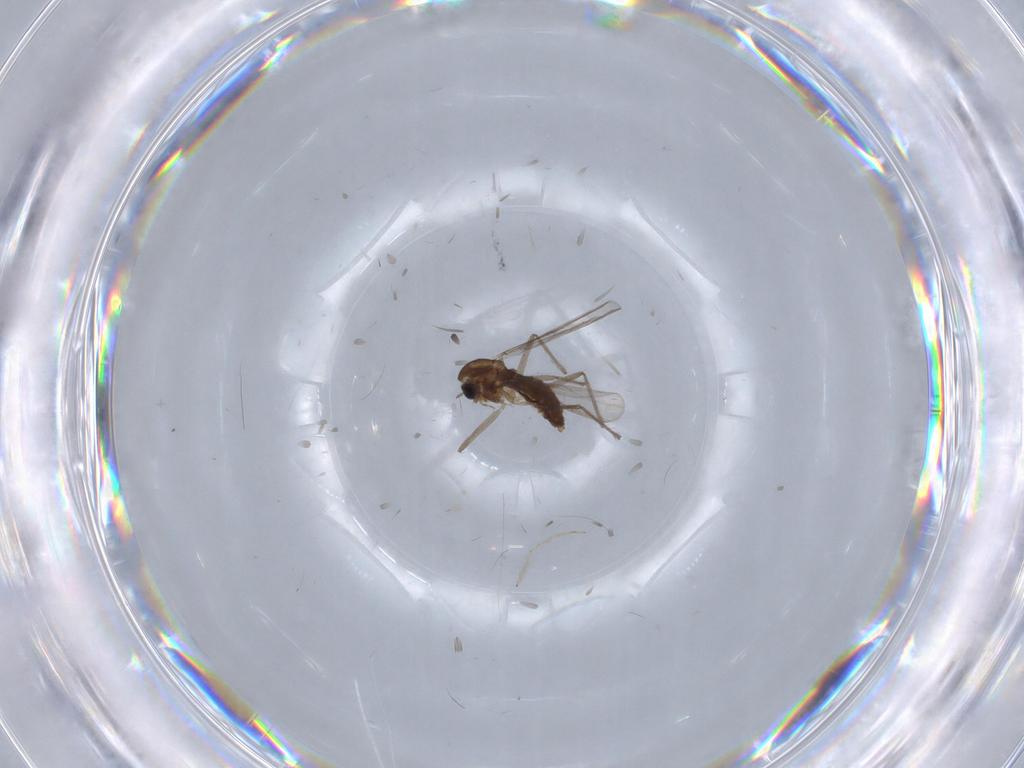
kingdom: Animalia
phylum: Arthropoda
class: Insecta
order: Diptera
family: Chironomidae
